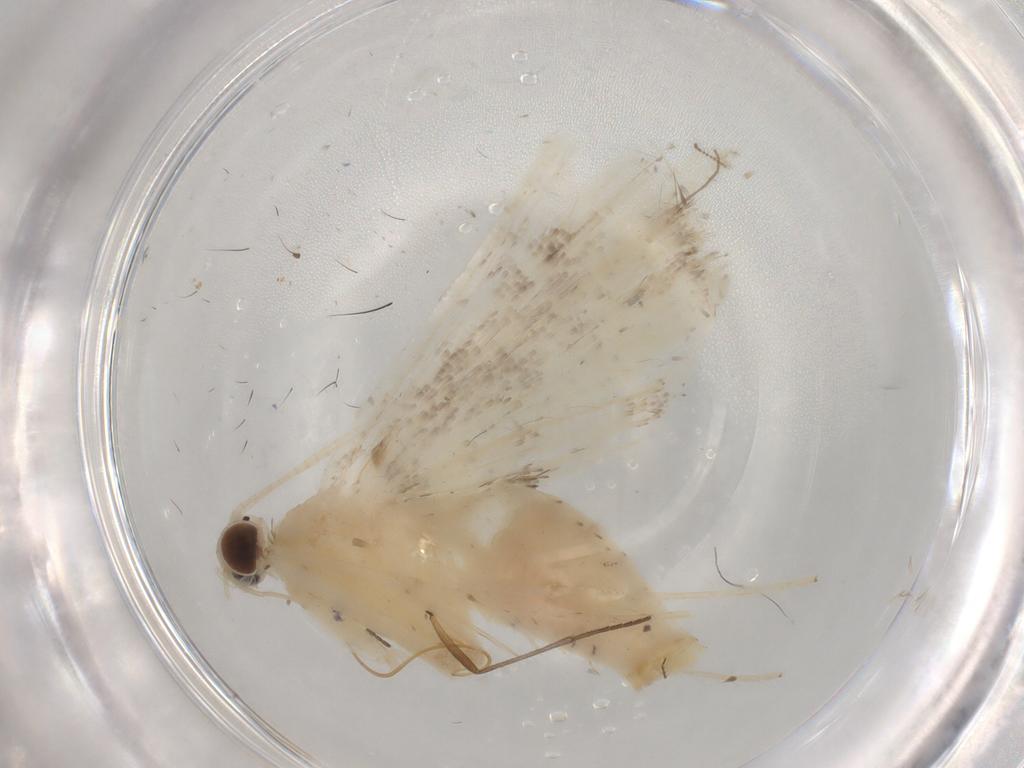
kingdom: Animalia
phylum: Arthropoda
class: Insecta
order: Lepidoptera
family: Crambidae
